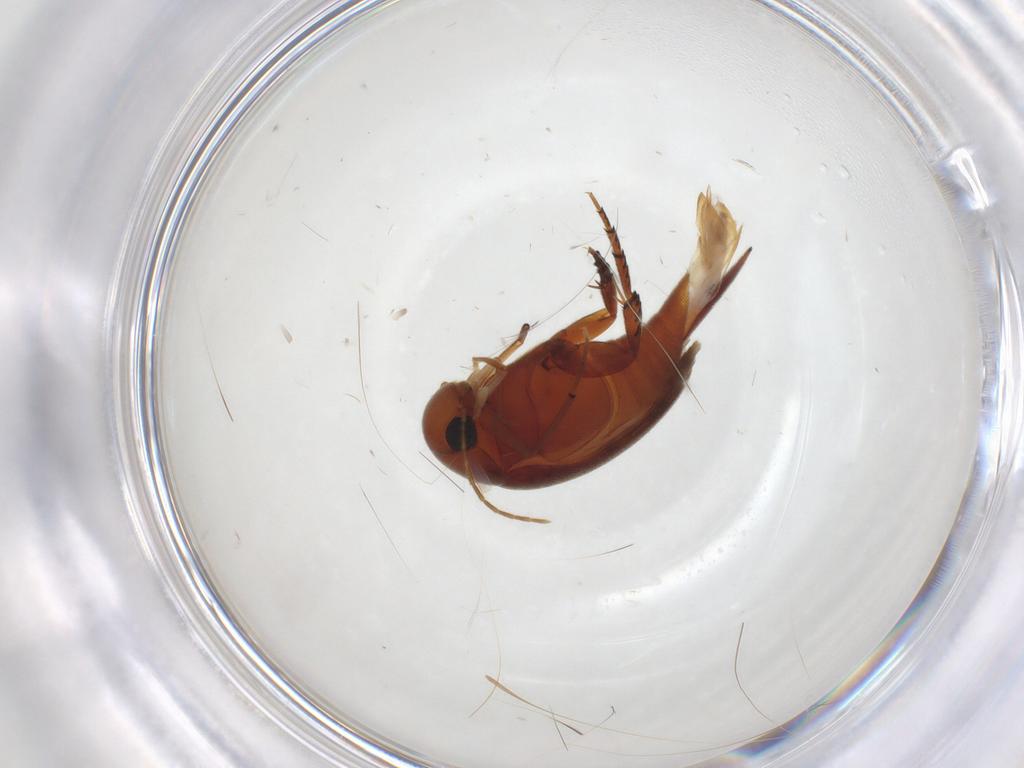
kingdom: Animalia
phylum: Arthropoda
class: Insecta
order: Coleoptera
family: Mordellidae
